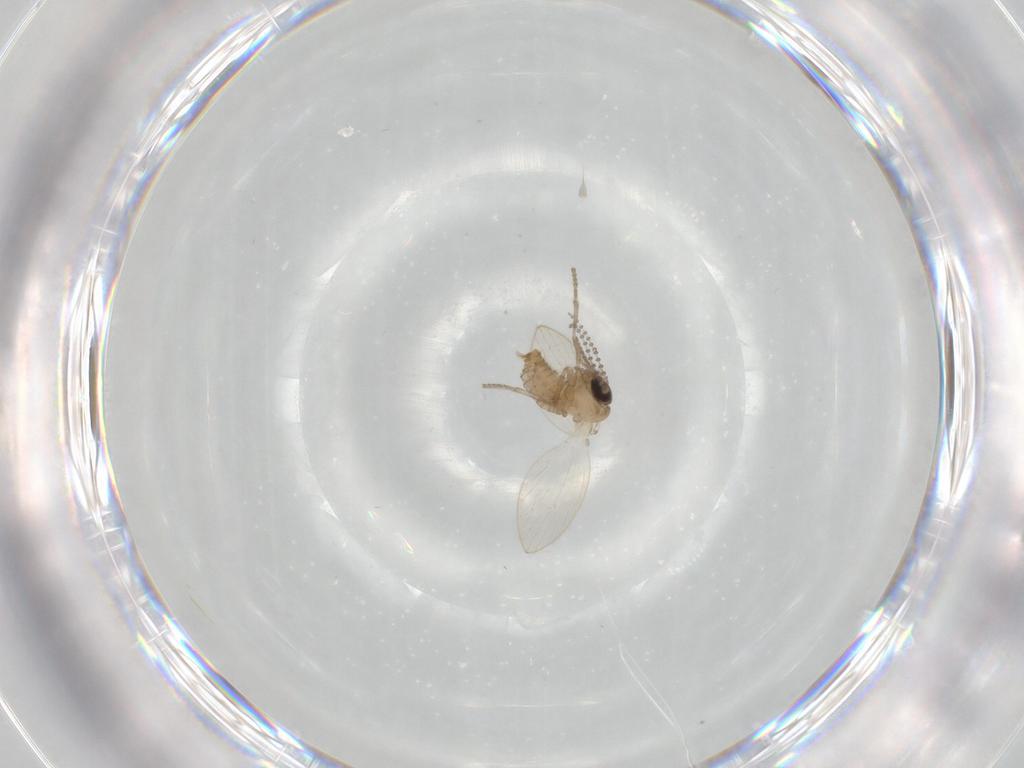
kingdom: Animalia
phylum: Arthropoda
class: Insecta
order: Diptera
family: Psychodidae
